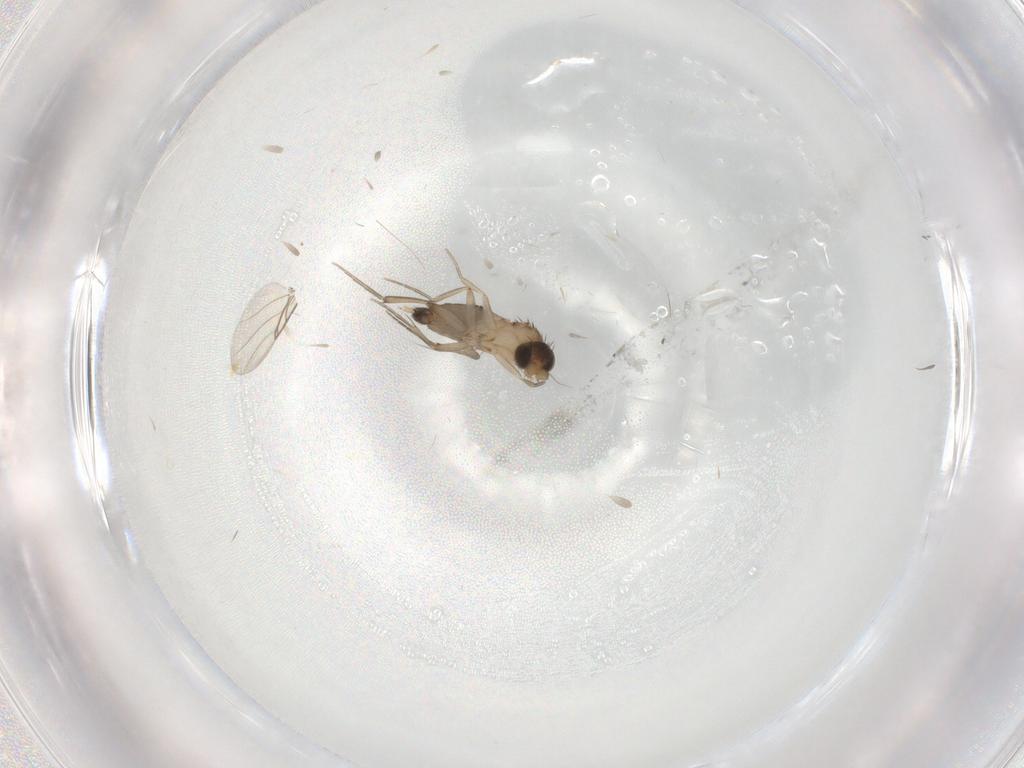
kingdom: Animalia
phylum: Arthropoda
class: Insecta
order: Diptera
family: Phoridae
